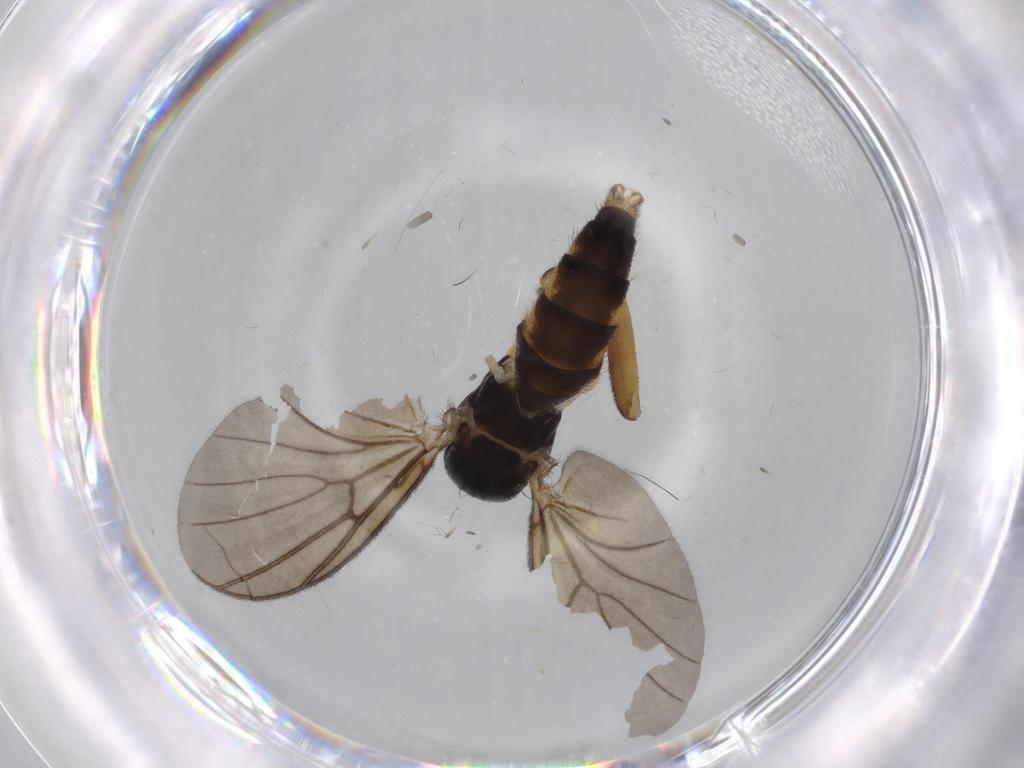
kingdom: Animalia
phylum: Arthropoda
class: Insecta
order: Diptera
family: Sciaridae
